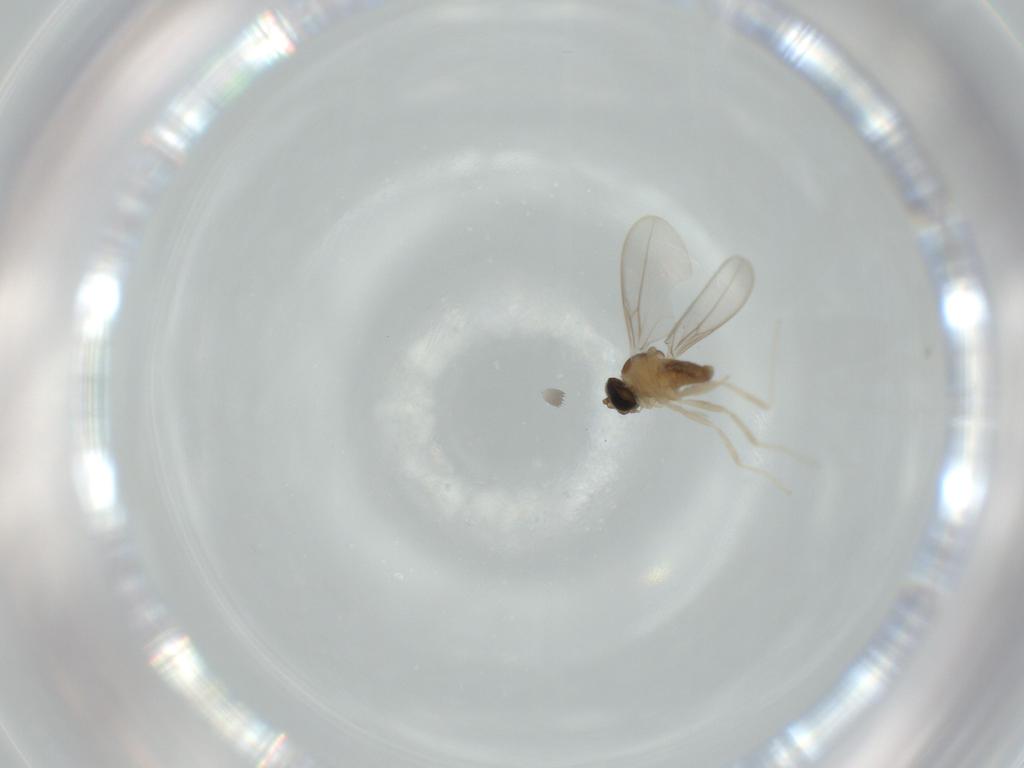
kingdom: Animalia
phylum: Arthropoda
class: Insecta
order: Diptera
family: Cecidomyiidae
